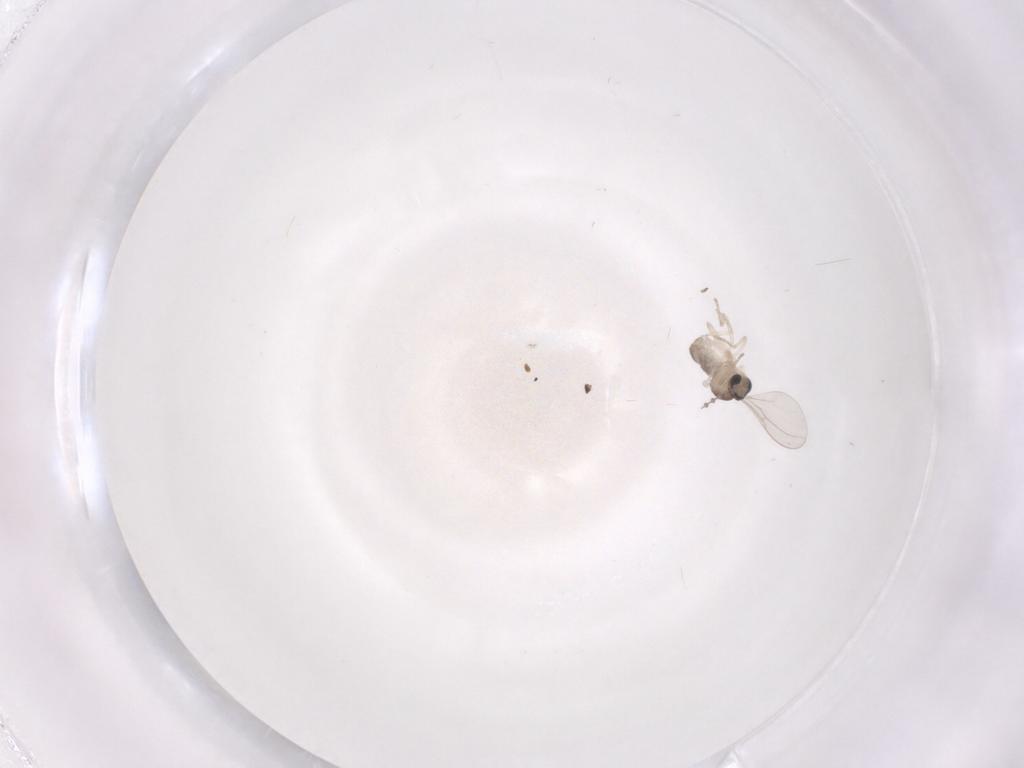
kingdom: Animalia
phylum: Arthropoda
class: Insecta
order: Diptera
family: Cecidomyiidae
